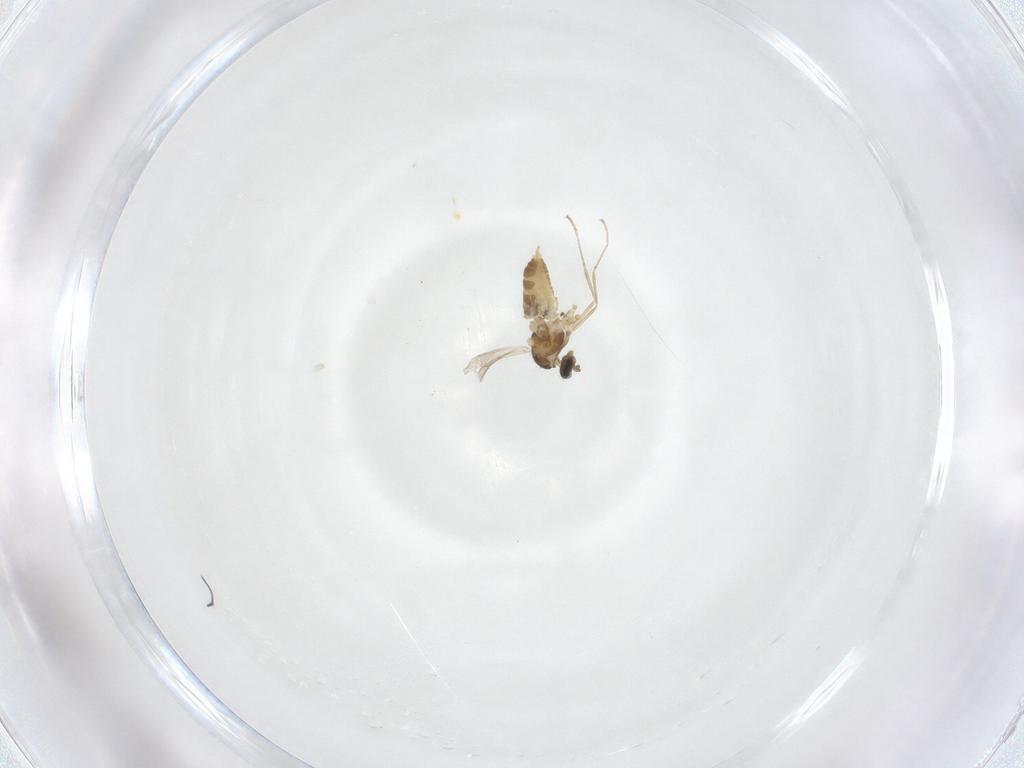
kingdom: Animalia
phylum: Arthropoda
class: Insecta
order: Diptera
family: Cecidomyiidae
